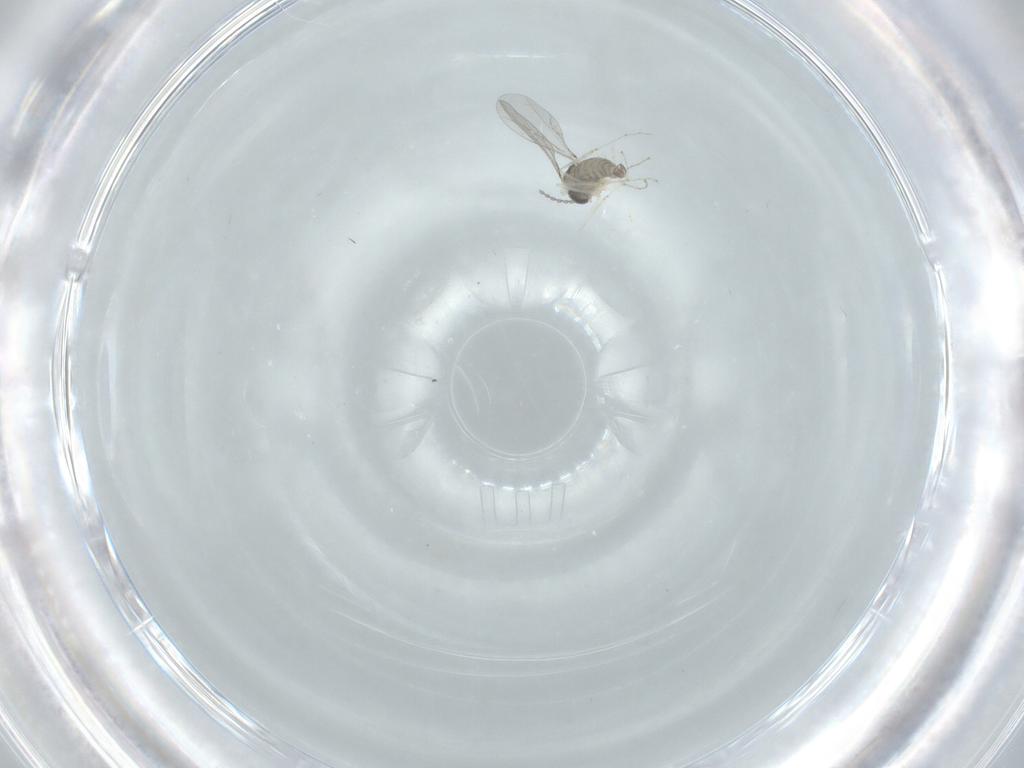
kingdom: Animalia
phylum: Arthropoda
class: Insecta
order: Diptera
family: Cecidomyiidae
